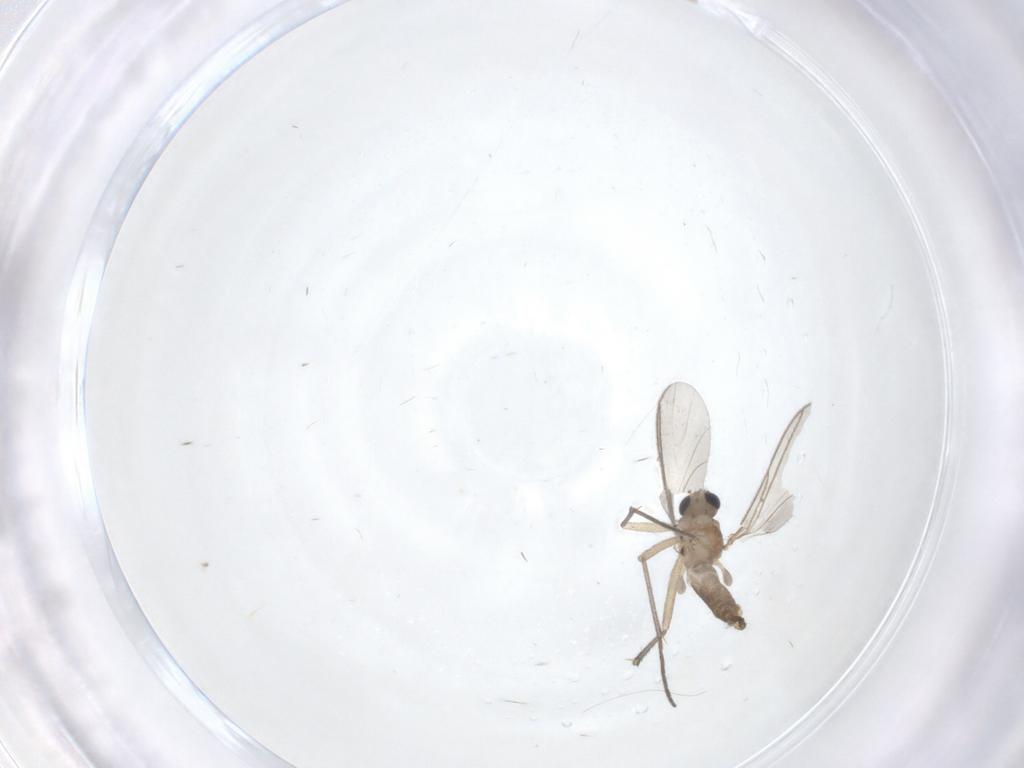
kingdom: Animalia
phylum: Arthropoda
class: Insecta
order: Diptera
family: Sciaridae
